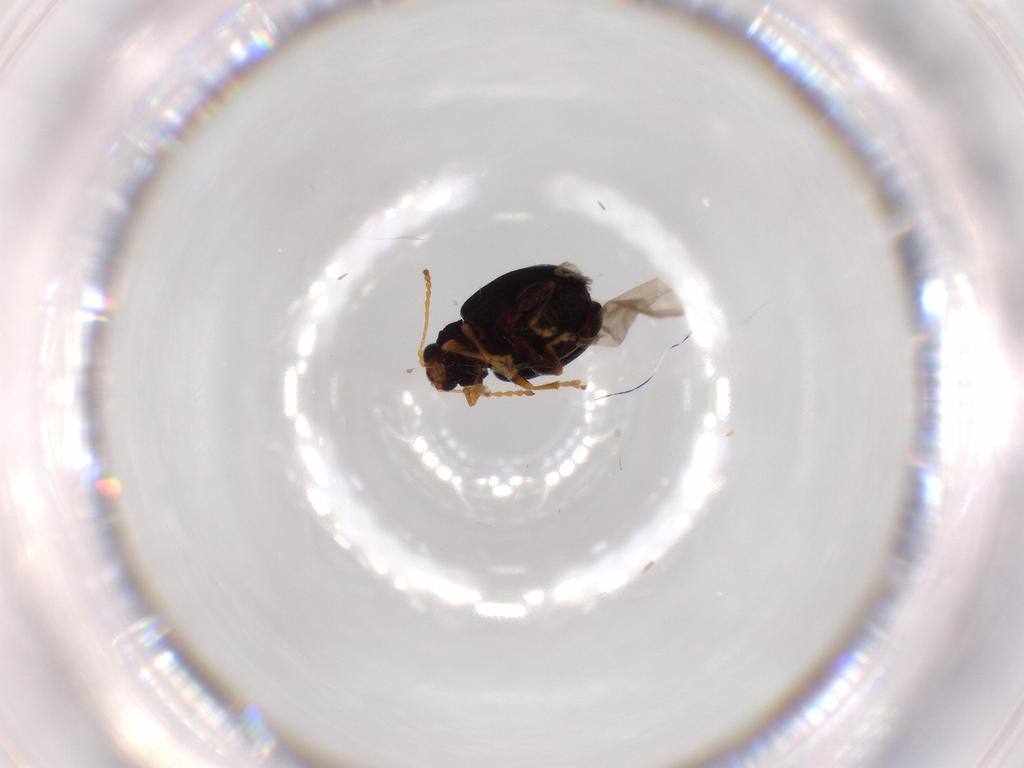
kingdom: Animalia
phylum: Arthropoda
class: Insecta
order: Coleoptera
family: Chrysomelidae
